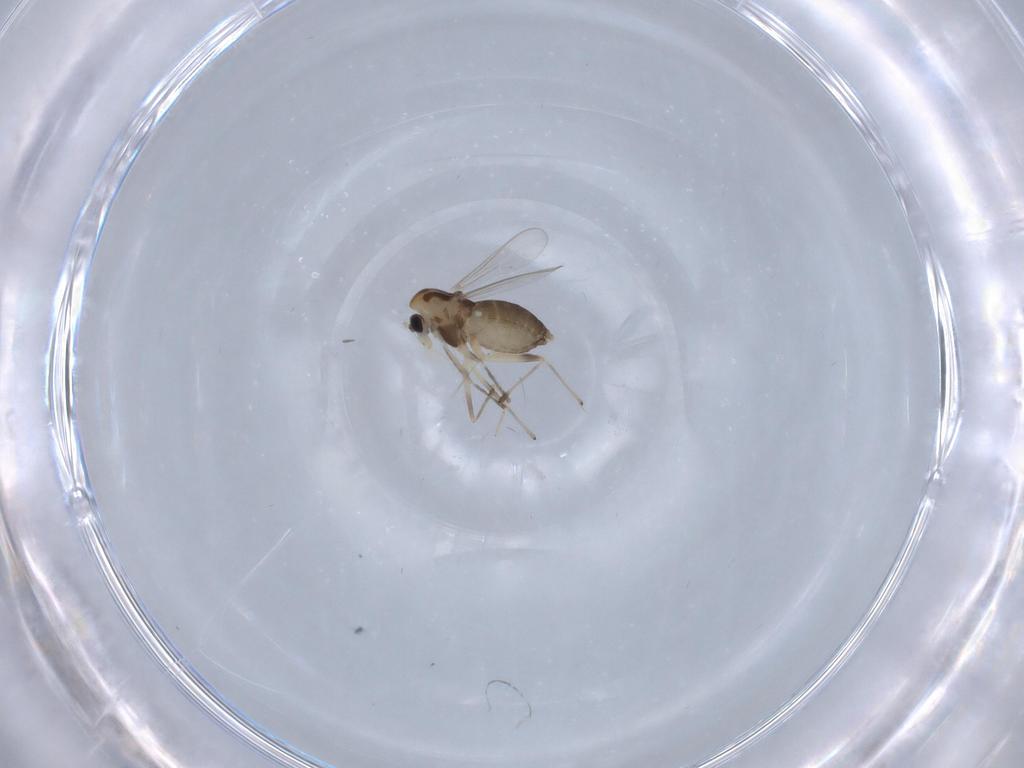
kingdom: Animalia
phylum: Arthropoda
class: Insecta
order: Diptera
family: Chironomidae
